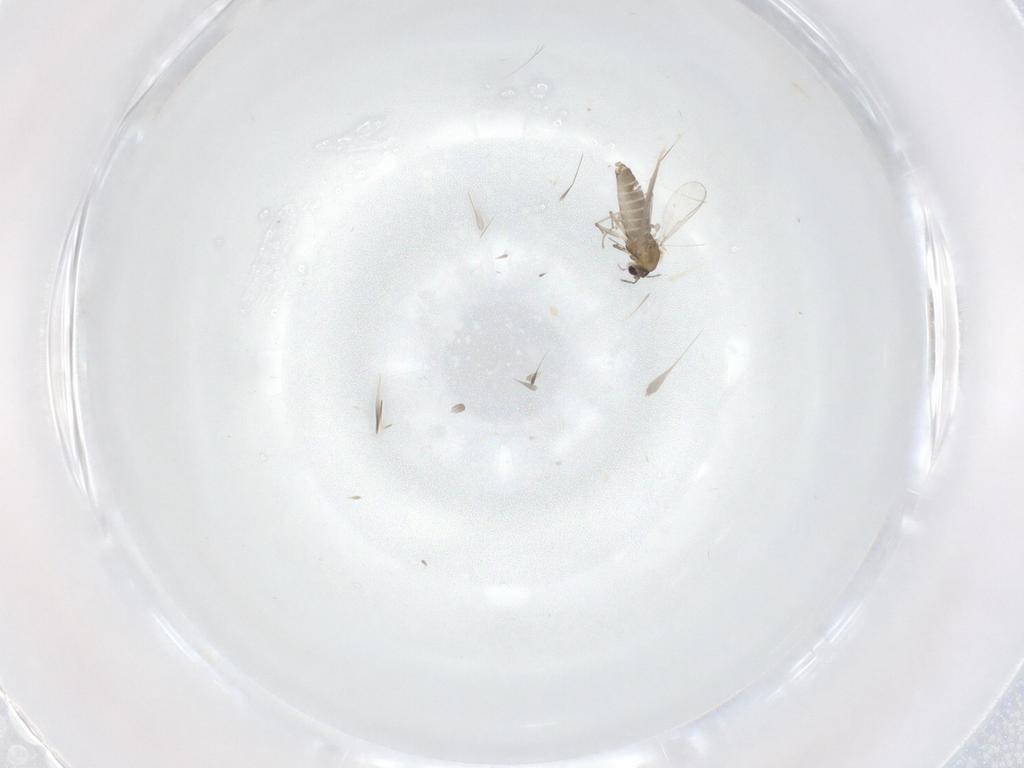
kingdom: Animalia
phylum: Arthropoda
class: Insecta
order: Diptera
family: Chironomidae
